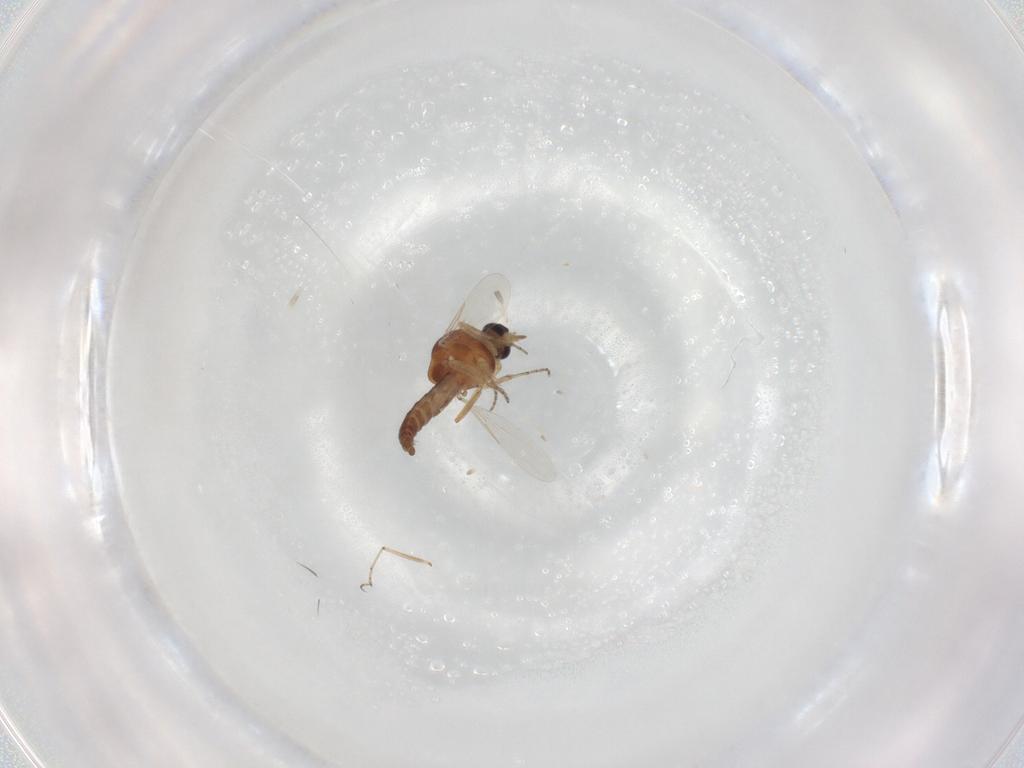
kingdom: Animalia
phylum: Arthropoda
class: Insecta
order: Diptera
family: Ceratopogonidae
